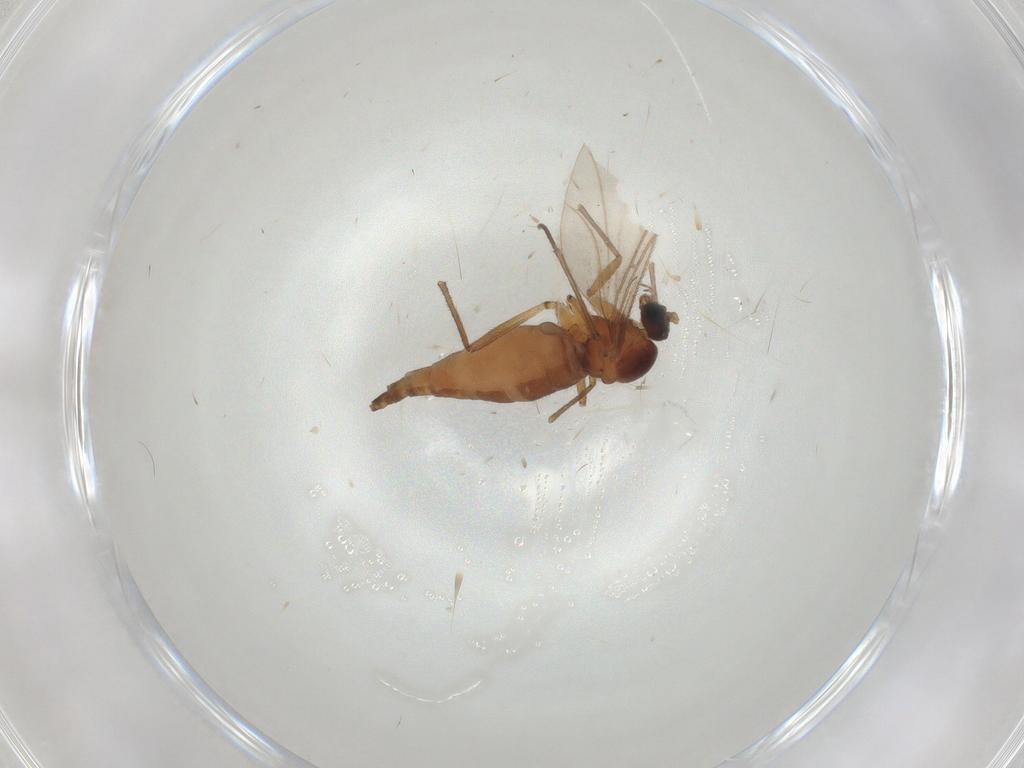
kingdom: Animalia
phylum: Arthropoda
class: Insecta
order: Diptera
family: Sciaridae
